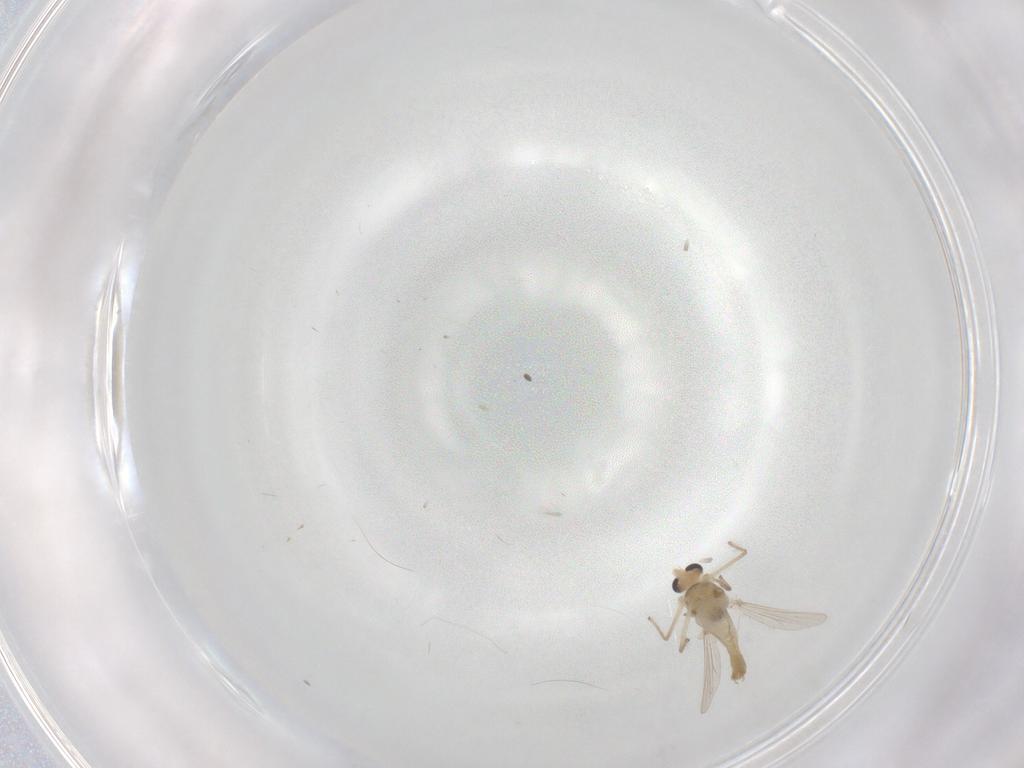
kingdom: Animalia
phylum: Arthropoda
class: Insecta
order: Diptera
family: Chironomidae
